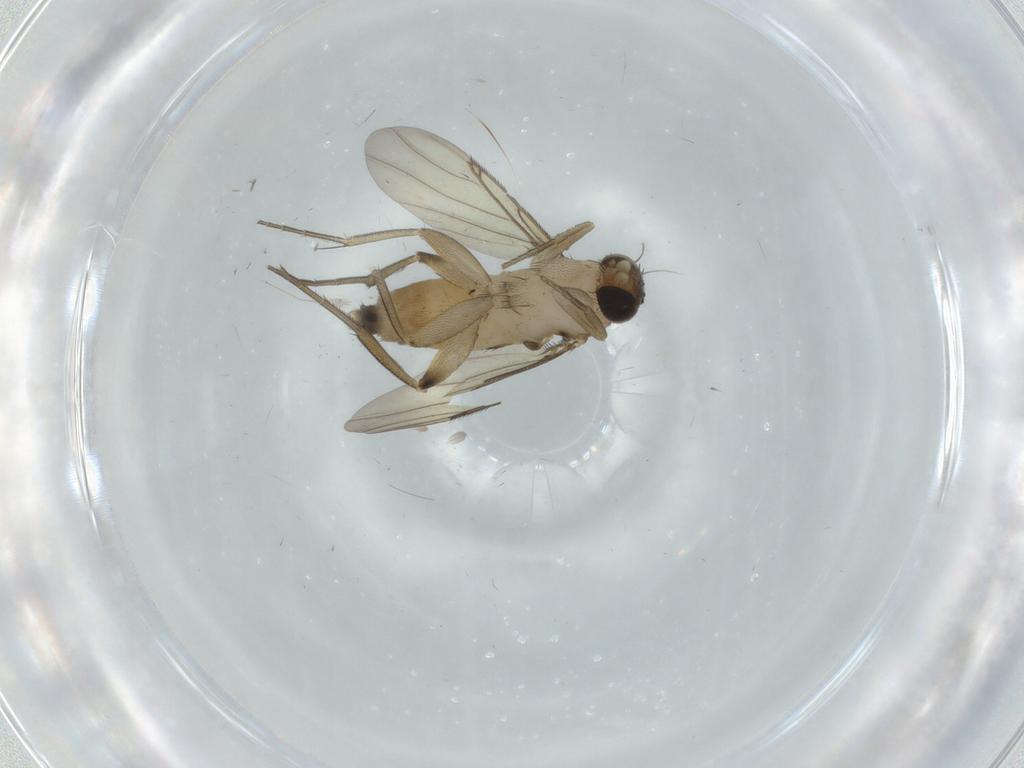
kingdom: Animalia
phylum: Arthropoda
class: Insecta
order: Diptera
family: Phoridae
